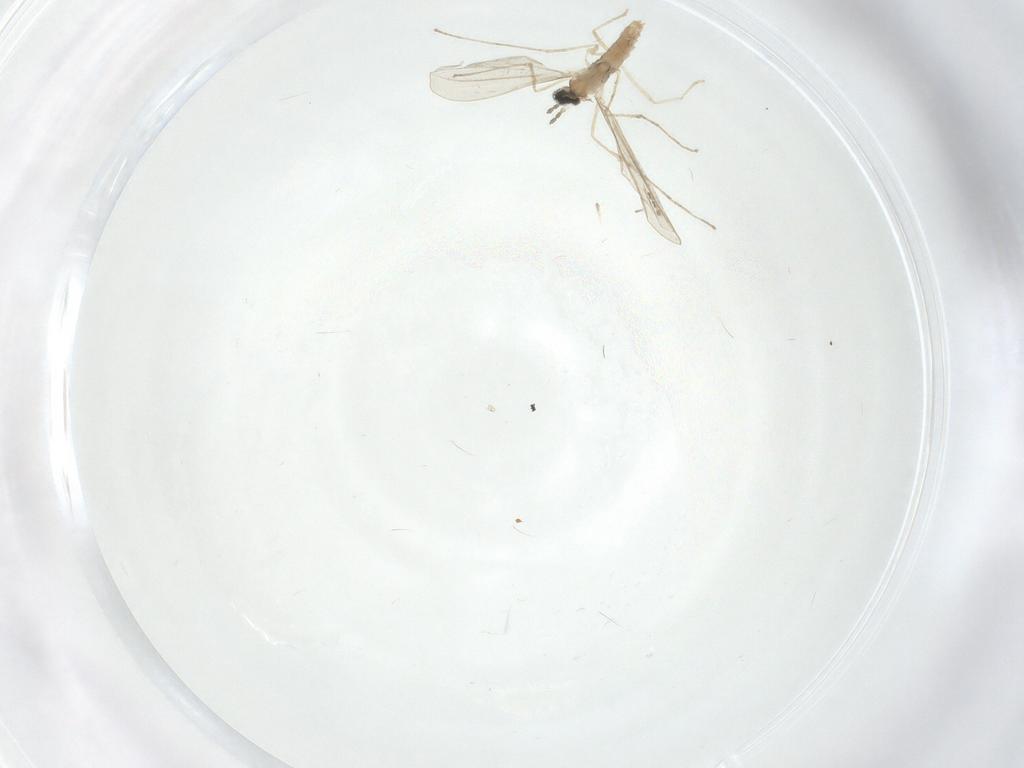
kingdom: Animalia
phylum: Arthropoda
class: Insecta
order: Diptera
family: Cecidomyiidae
